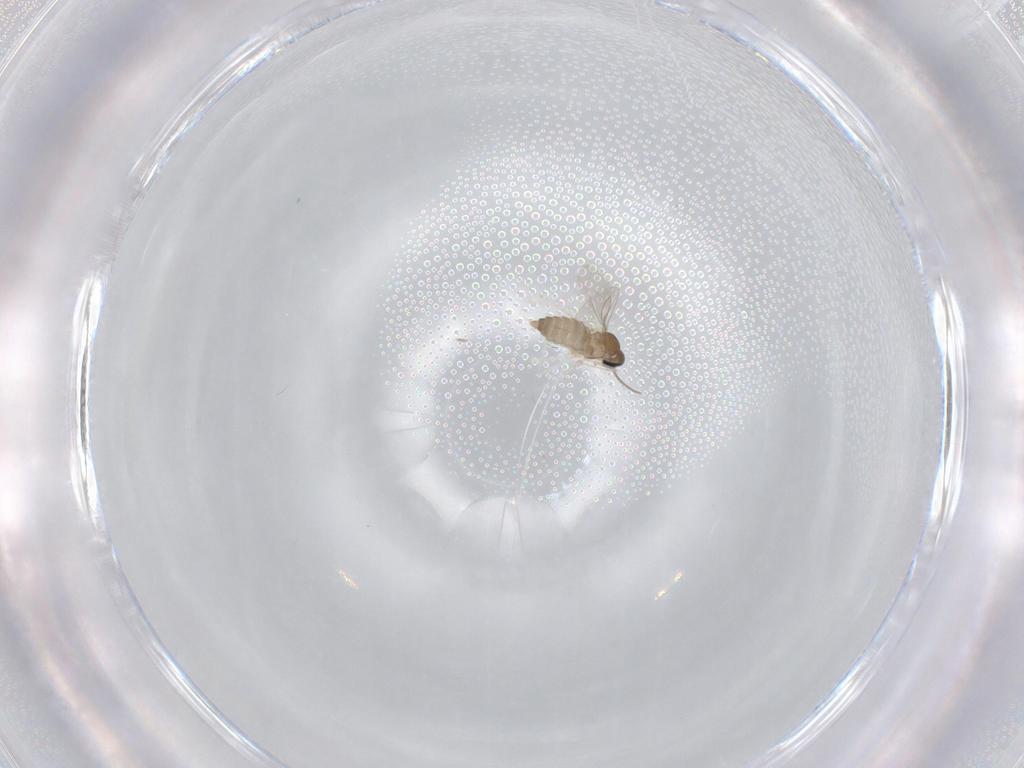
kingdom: Animalia
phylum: Arthropoda
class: Insecta
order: Diptera
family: Cecidomyiidae
